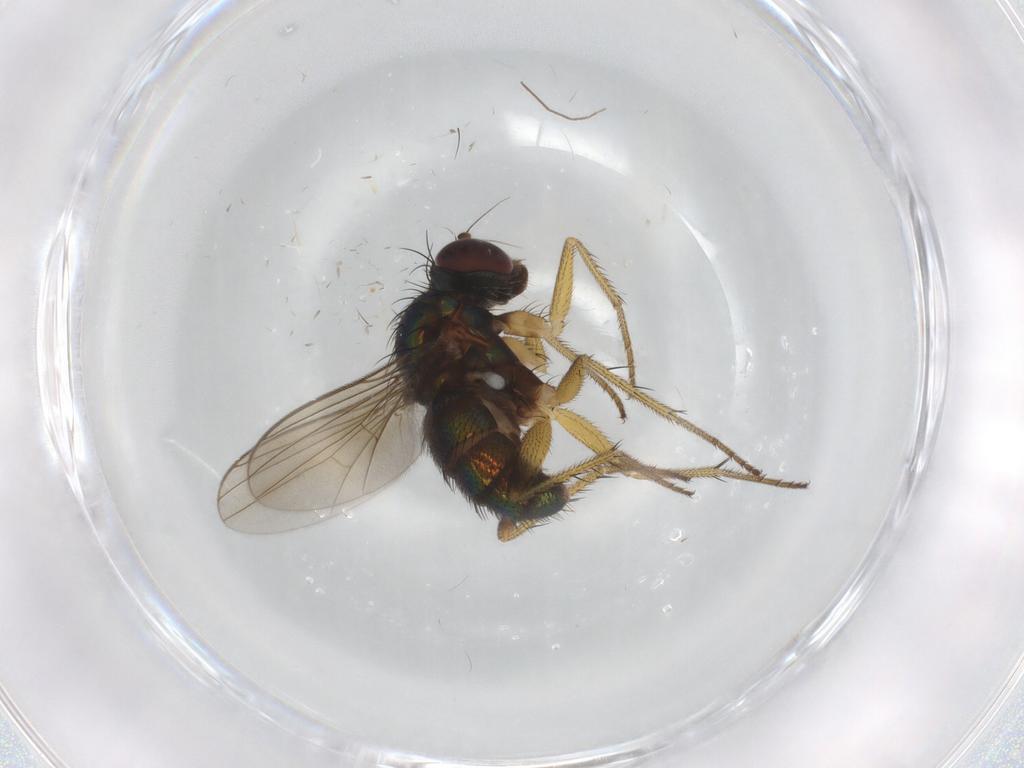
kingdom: Animalia
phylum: Arthropoda
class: Insecta
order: Diptera
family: Dolichopodidae
